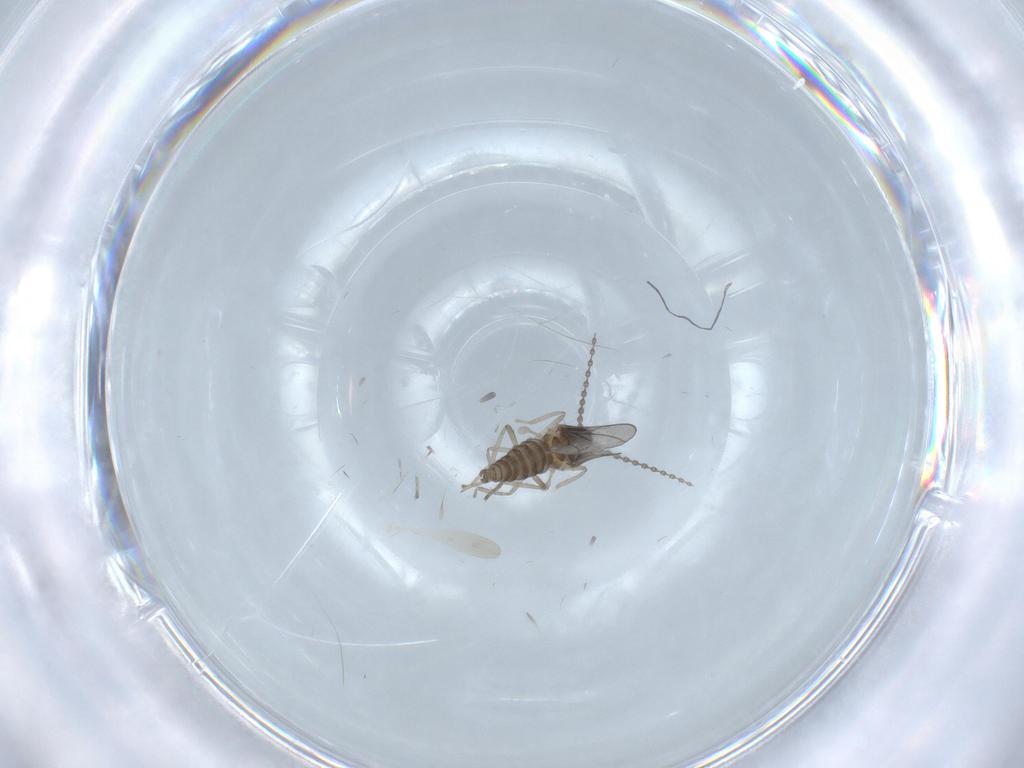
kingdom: Animalia
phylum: Arthropoda
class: Insecta
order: Diptera
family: Cecidomyiidae
